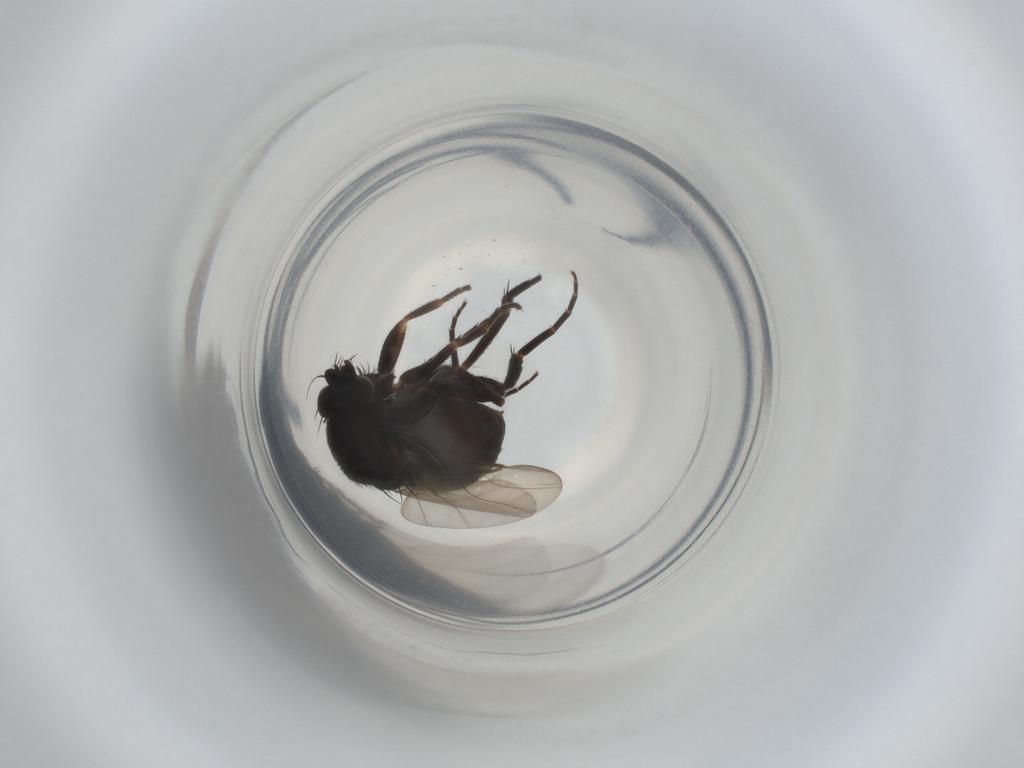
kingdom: Animalia
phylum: Arthropoda
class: Insecta
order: Diptera
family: Phoridae
